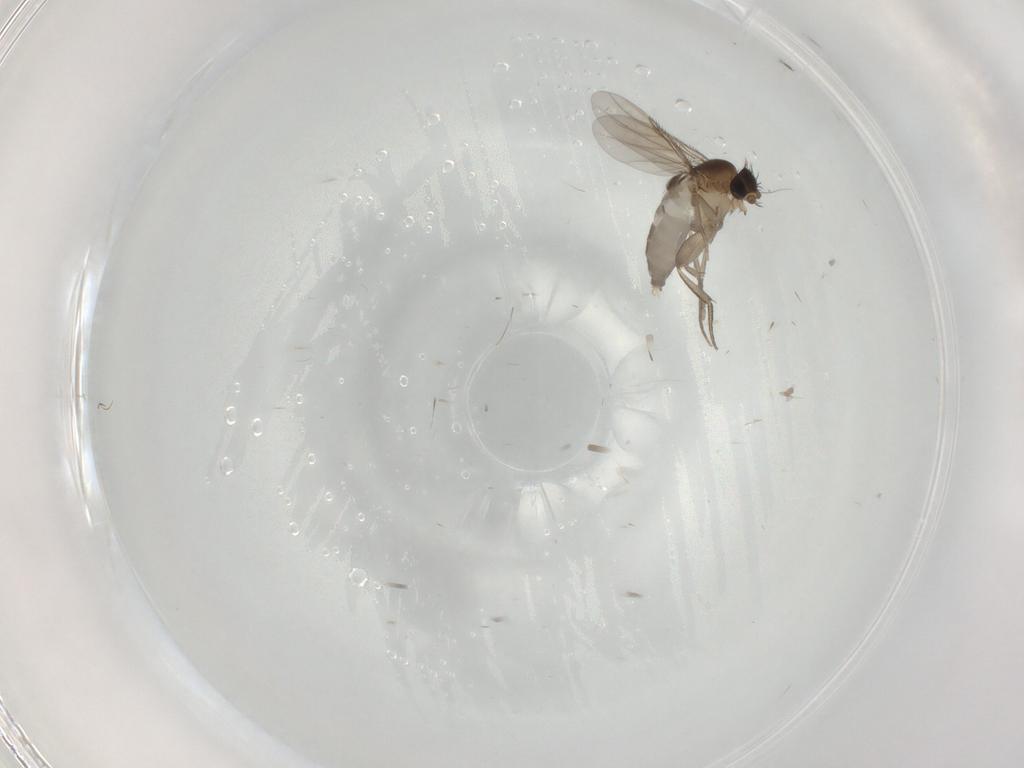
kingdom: Animalia
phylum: Arthropoda
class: Insecta
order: Diptera
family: Phoridae
